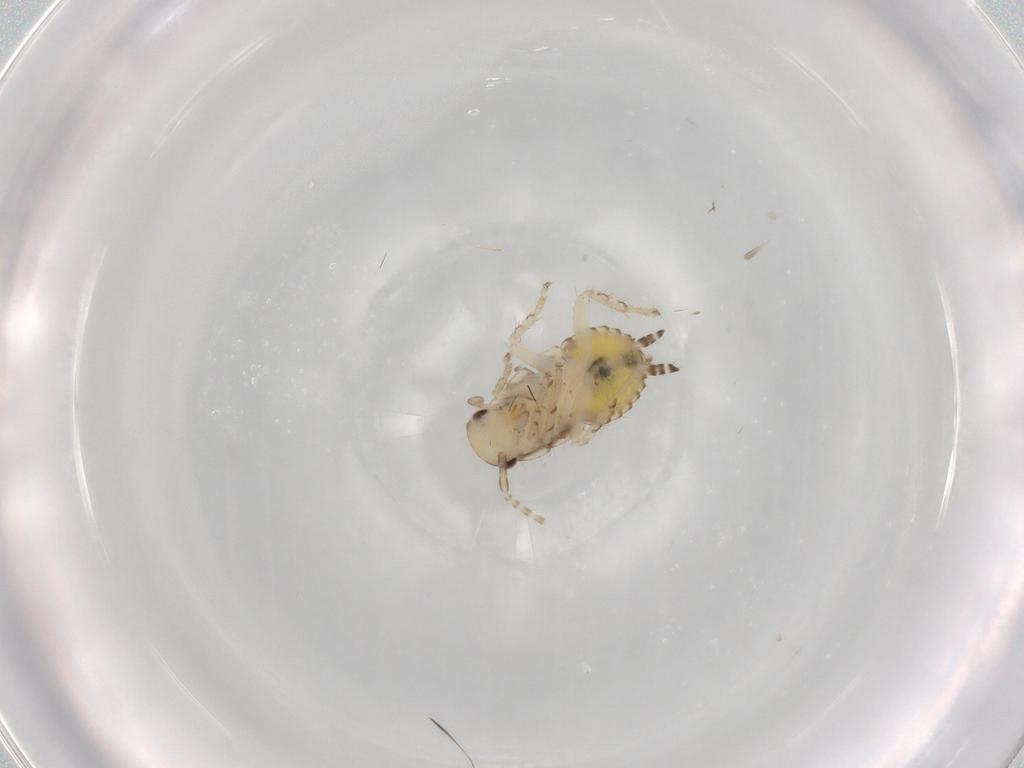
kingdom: Animalia
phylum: Arthropoda
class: Insecta
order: Blattodea
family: Ectobiidae
